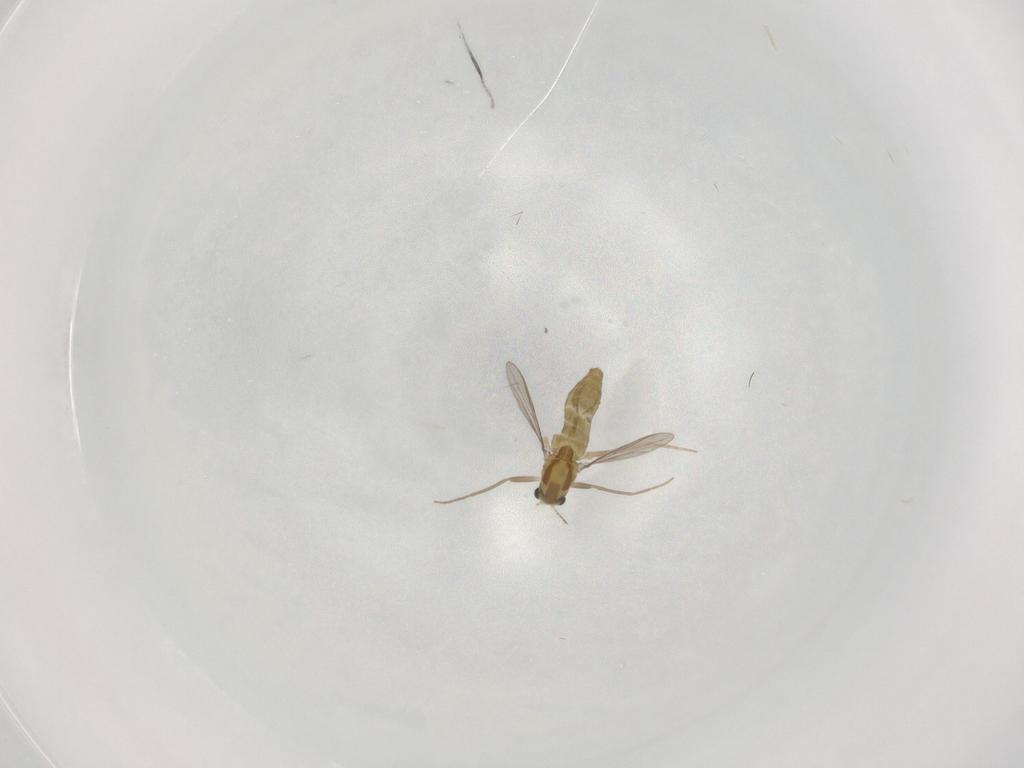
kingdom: Animalia
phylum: Arthropoda
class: Insecta
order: Diptera
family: Chironomidae
